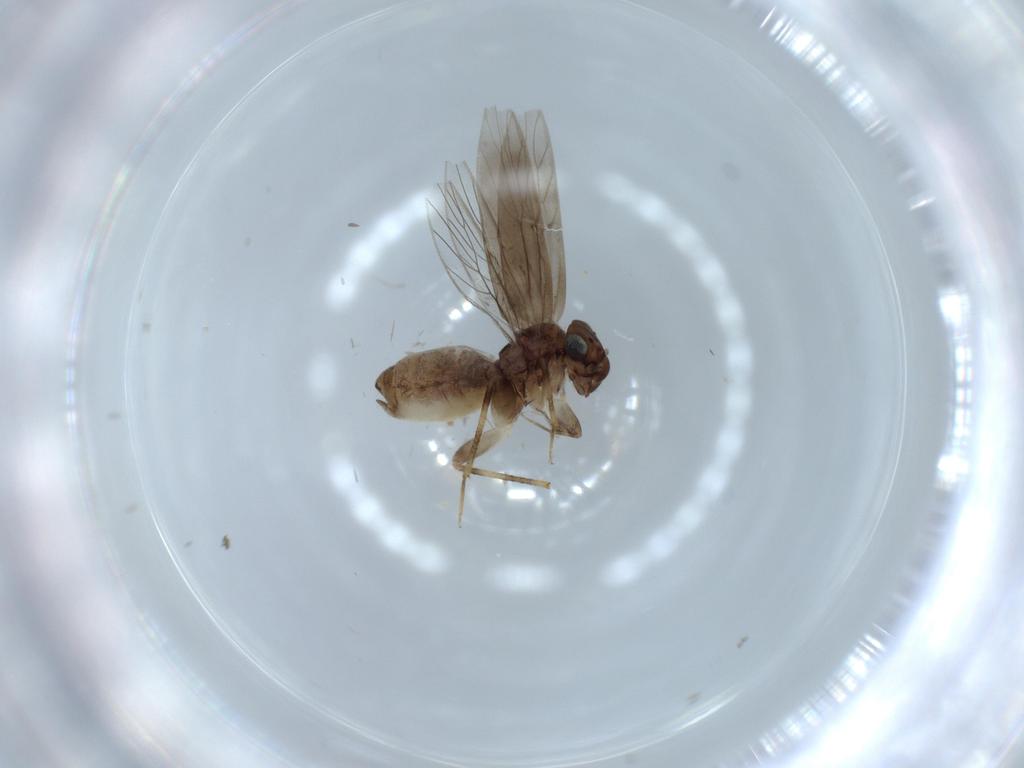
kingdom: Animalia
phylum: Arthropoda
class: Insecta
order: Psocodea
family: Lepidopsocidae
